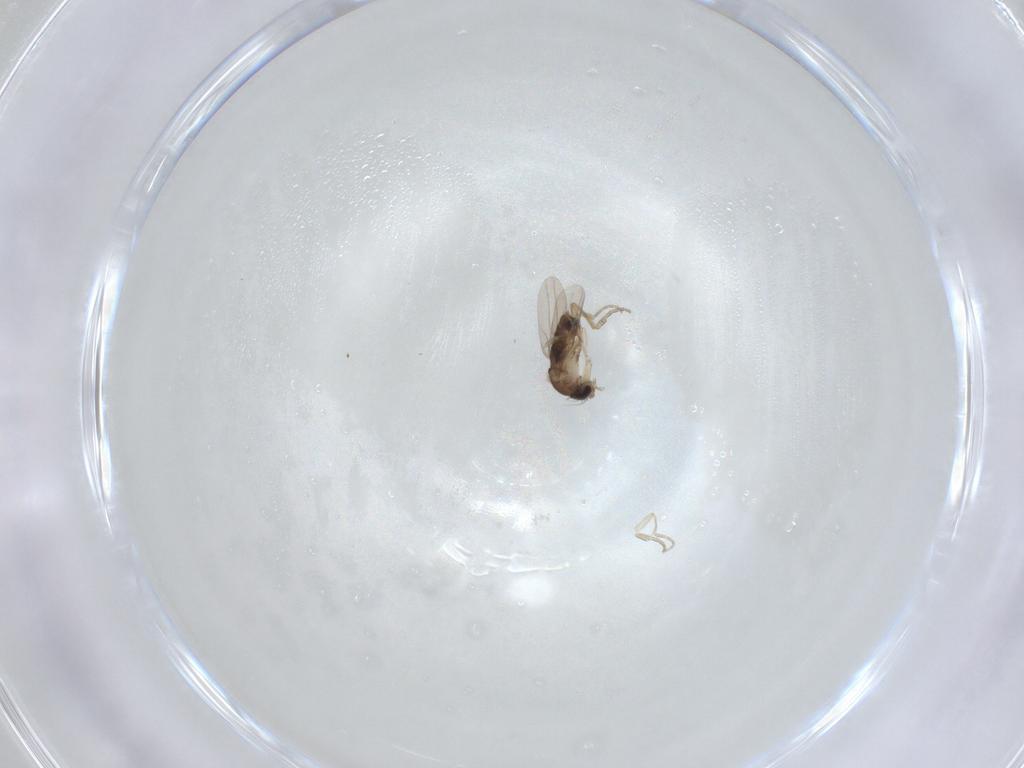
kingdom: Animalia
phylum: Arthropoda
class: Insecta
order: Diptera
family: Phoridae
